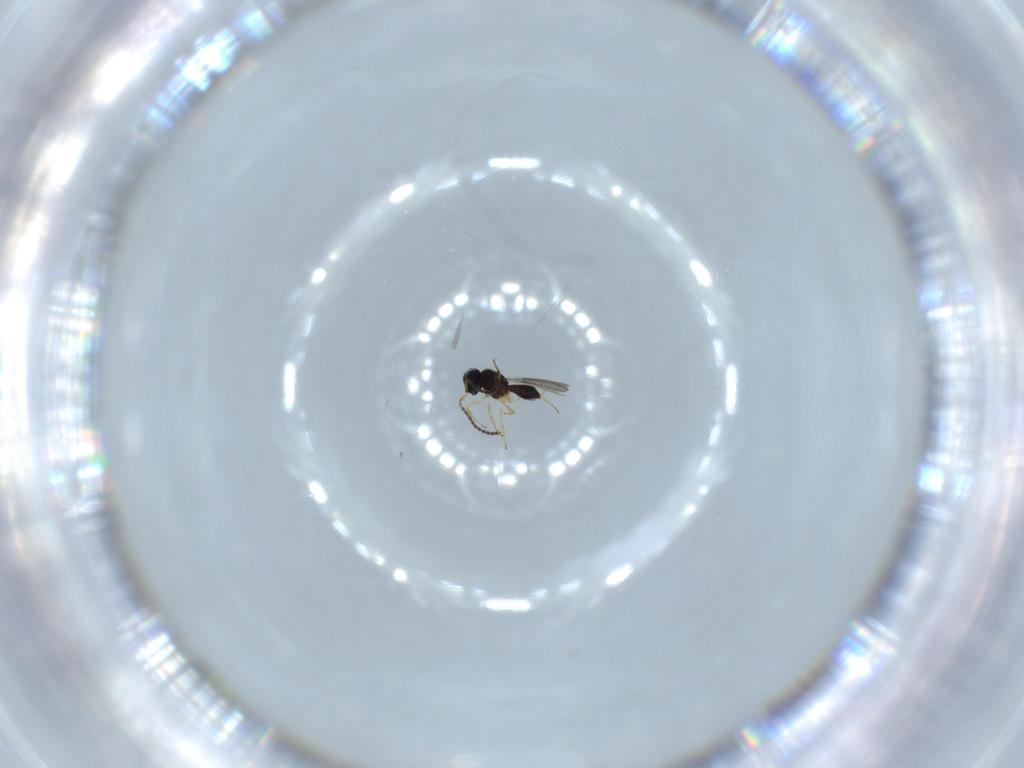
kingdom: Animalia
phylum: Arthropoda
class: Insecta
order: Hymenoptera
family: Scelionidae
